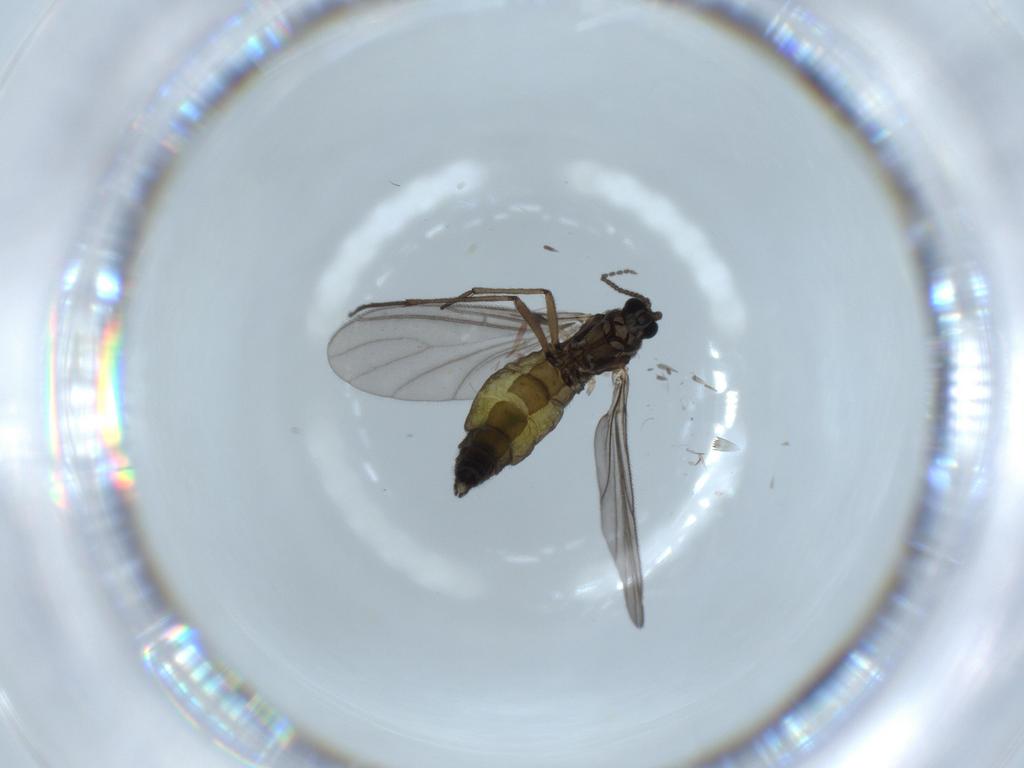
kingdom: Animalia
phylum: Arthropoda
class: Insecta
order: Diptera
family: Sciaridae
